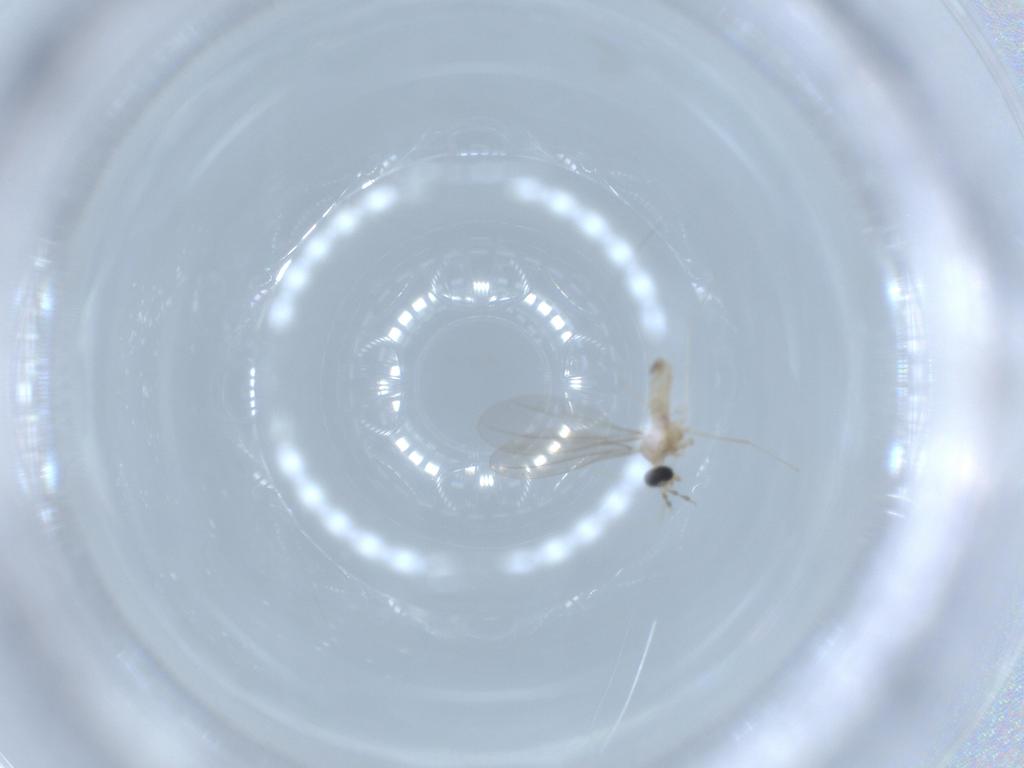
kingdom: Animalia
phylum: Arthropoda
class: Insecta
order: Diptera
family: Cecidomyiidae
